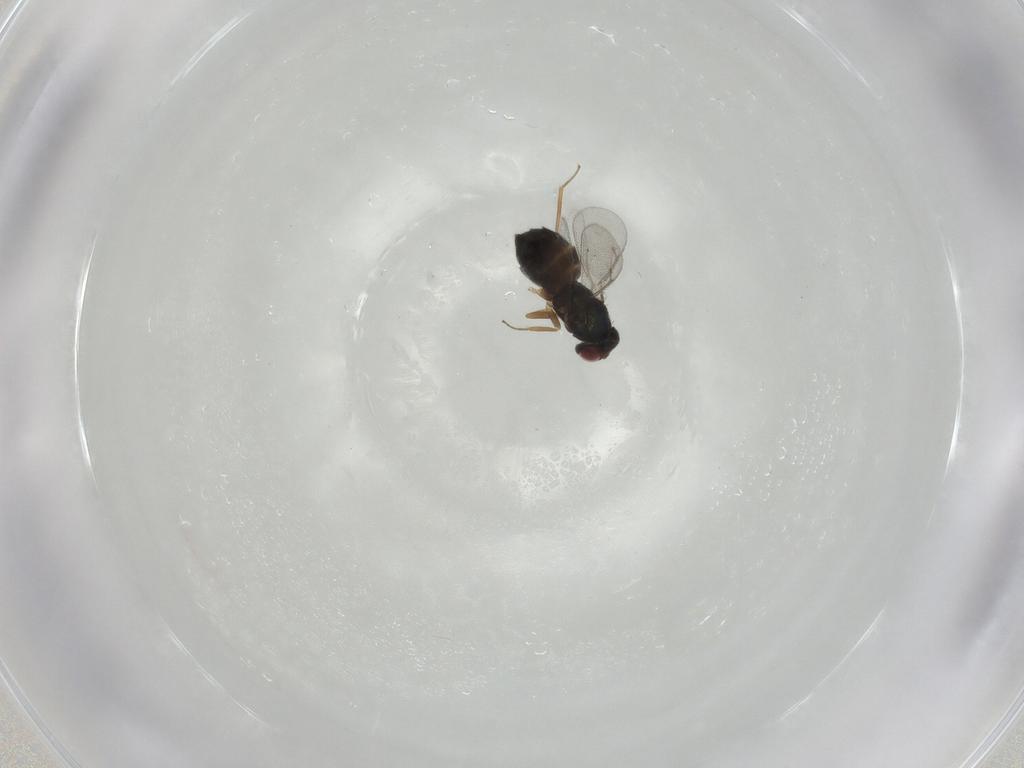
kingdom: Animalia
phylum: Arthropoda
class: Insecta
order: Hymenoptera
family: Eulophidae
